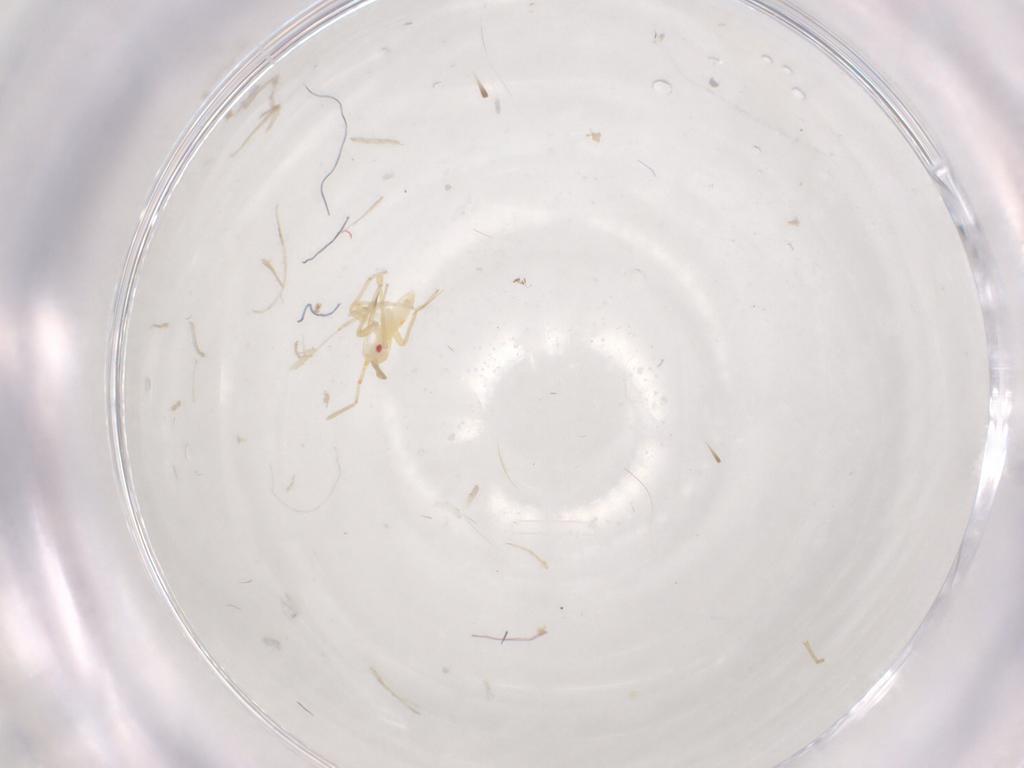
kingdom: Animalia
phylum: Arthropoda
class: Insecta
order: Hemiptera
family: Miridae
